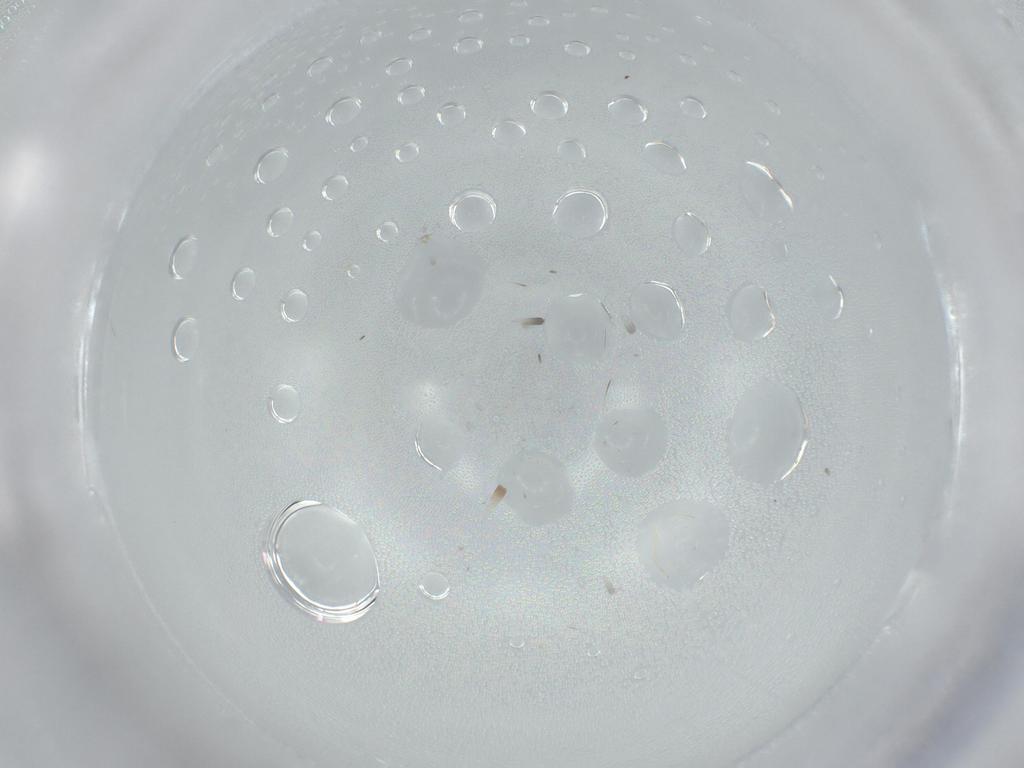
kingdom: Animalia
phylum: Arthropoda
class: Insecta
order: Diptera
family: Cecidomyiidae
